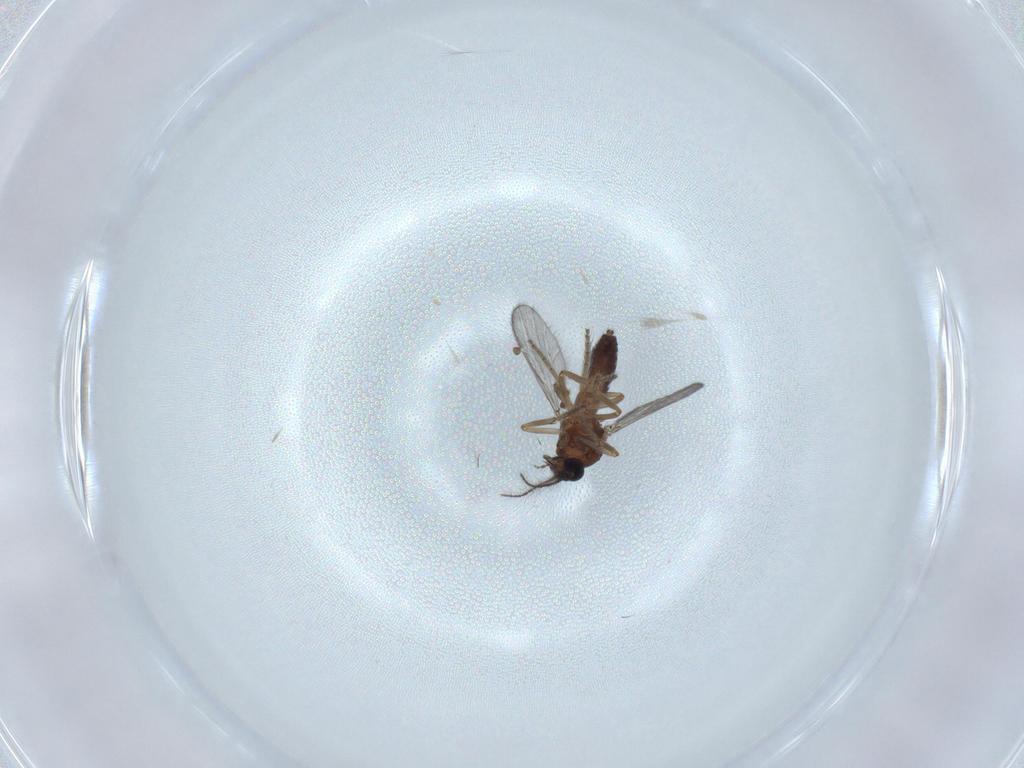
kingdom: Animalia
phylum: Arthropoda
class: Insecta
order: Diptera
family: Ceratopogonidae
